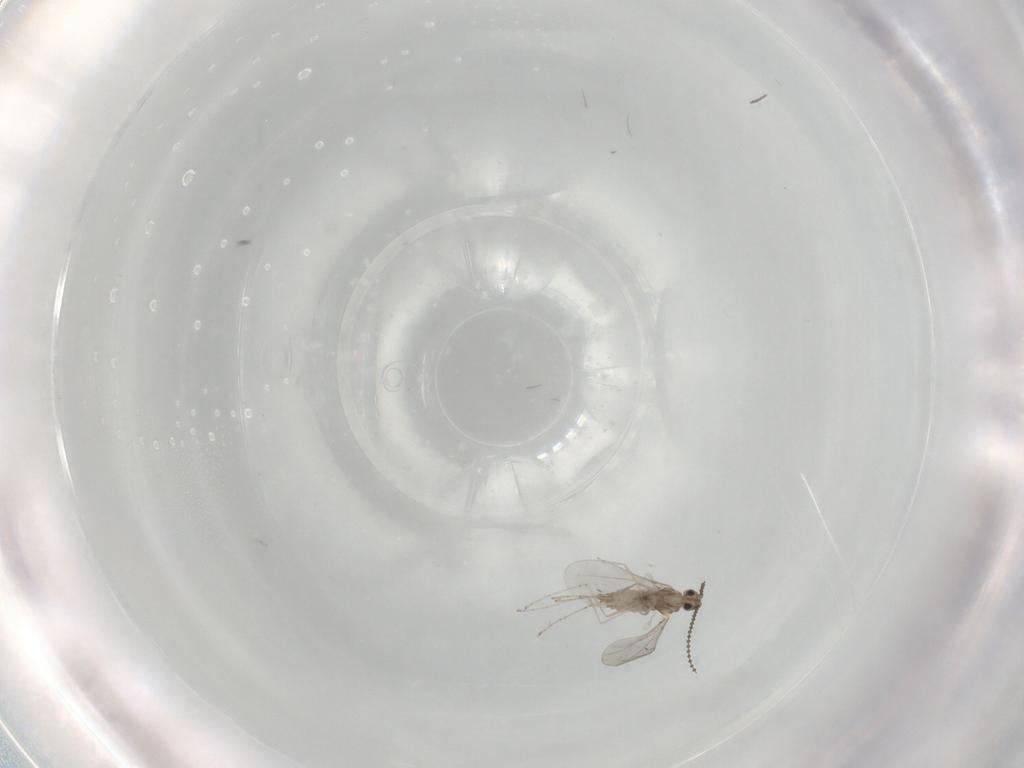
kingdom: Animalia
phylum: Arthropoda
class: Insecta
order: Diptera
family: Cecidomyiidae
